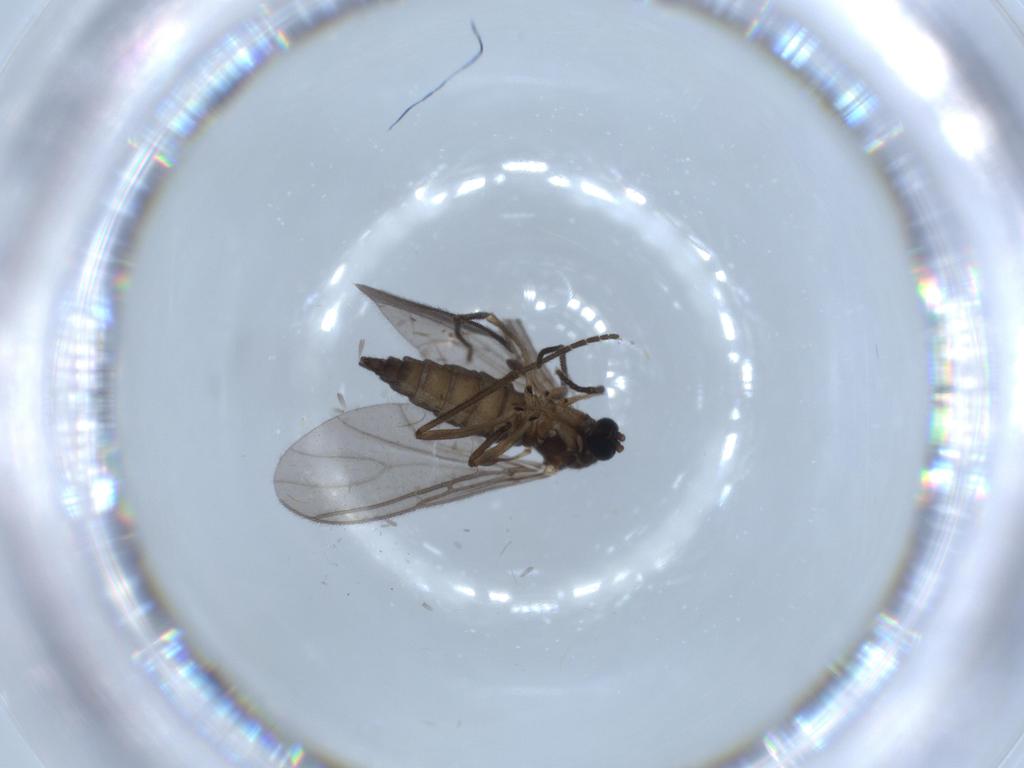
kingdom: Animalia
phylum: Arthropoda
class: Insecta
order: Diptera
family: Sciaridae
